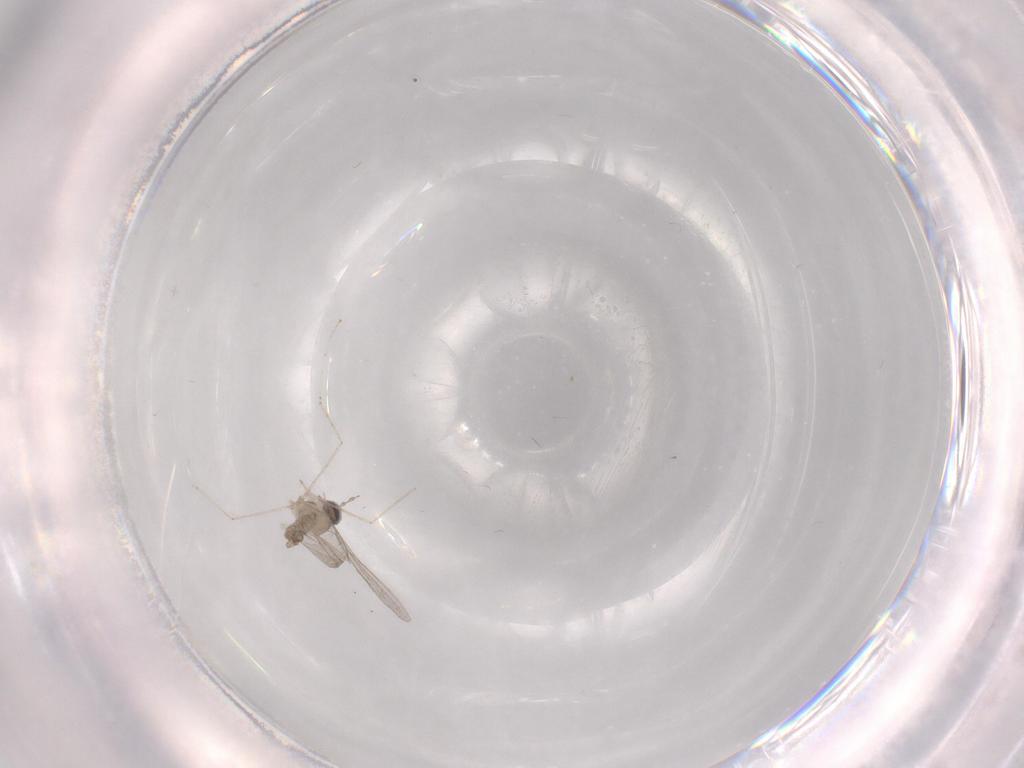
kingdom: Animalia
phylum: Arthropoda
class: Insecta
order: Diptera
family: Cecidomyiidae
